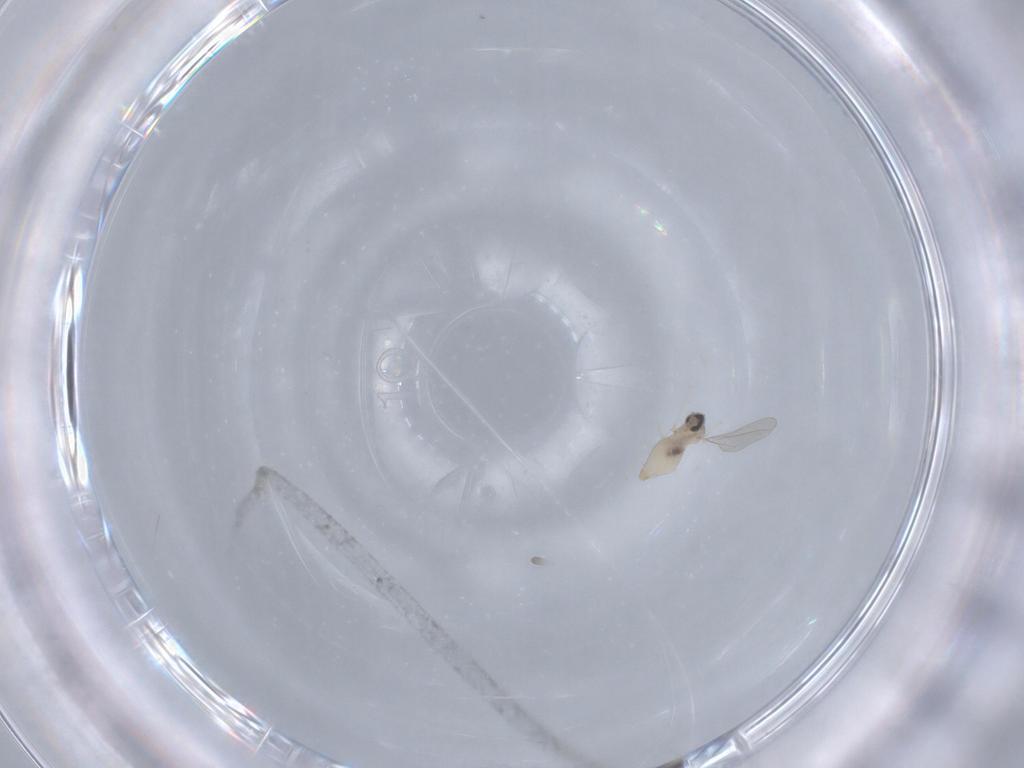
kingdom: Animalia
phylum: Arthropoda
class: Insecta
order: Diptera
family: Cecidomyiidae
